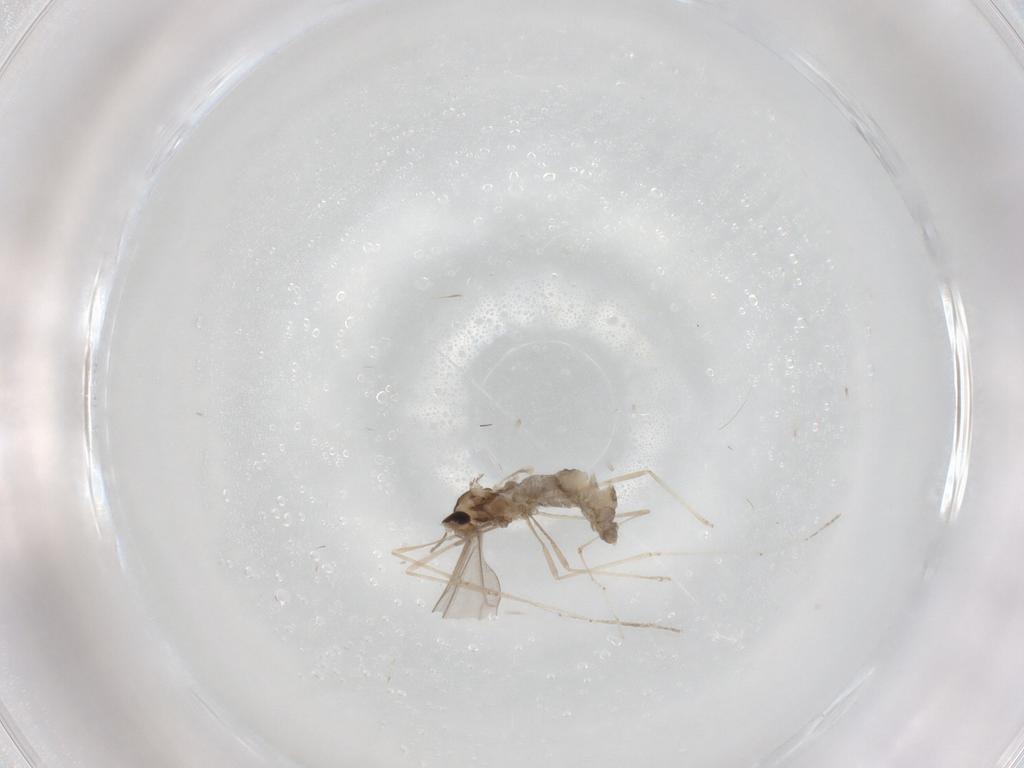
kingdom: Animalia
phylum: Arthropoda
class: Insecta
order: Diptera
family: Cecidomyiidae
